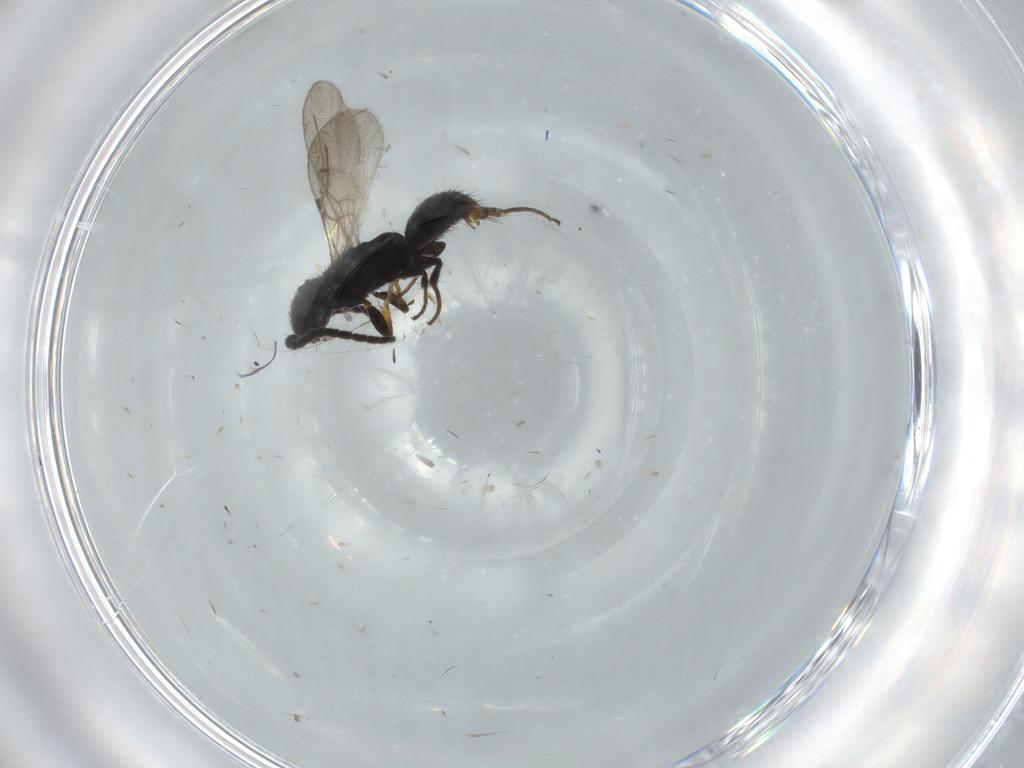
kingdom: Animalia
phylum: Arthropoda
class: Insecta
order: Hymenoptera
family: Bethylidae
